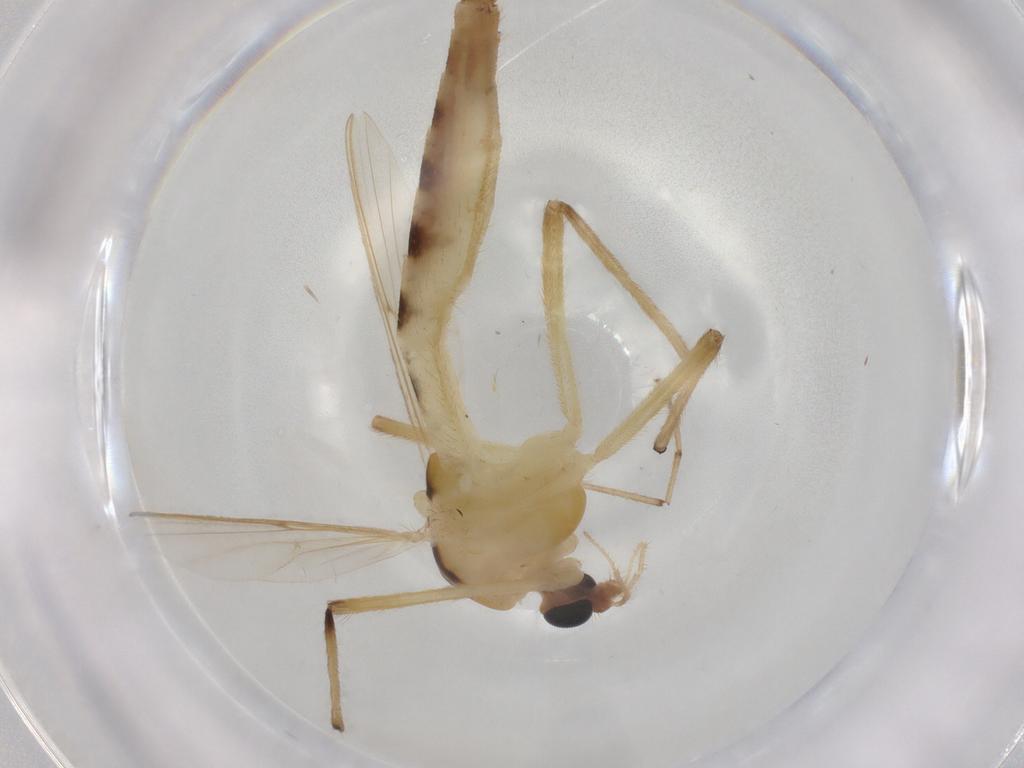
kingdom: Animalia
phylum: Arthropoda
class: Insecta
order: Diptera
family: Chironomidae
